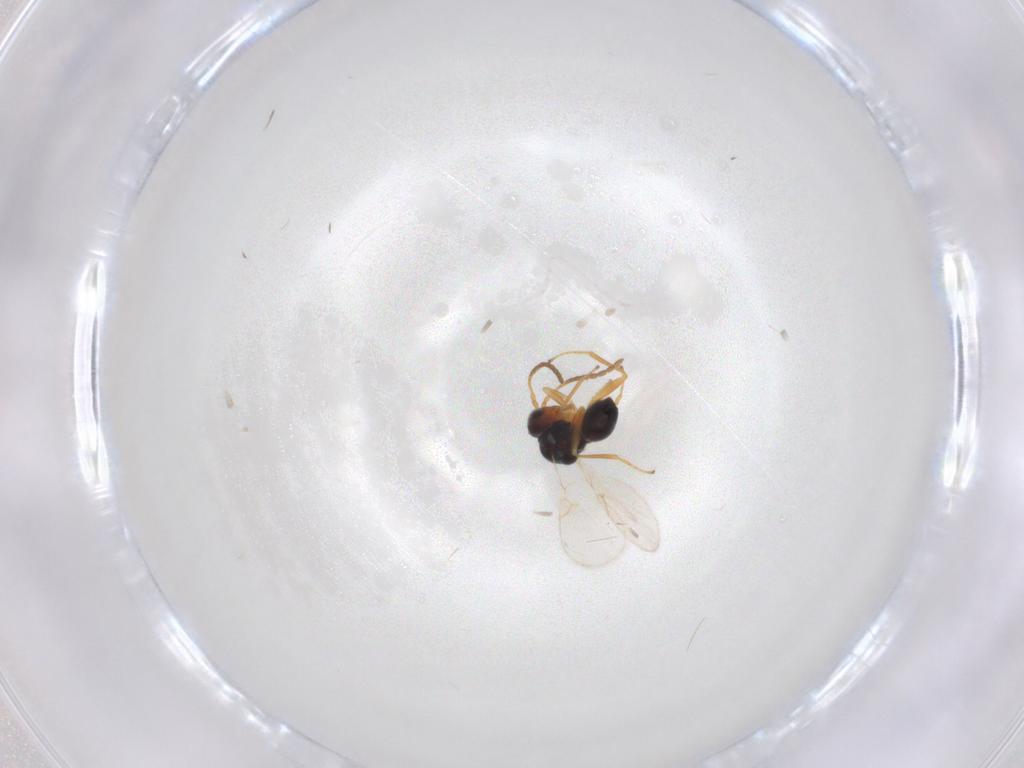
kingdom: Animalia
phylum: Arthropoda
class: Insecta
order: Hymenoptera
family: Figitidae
